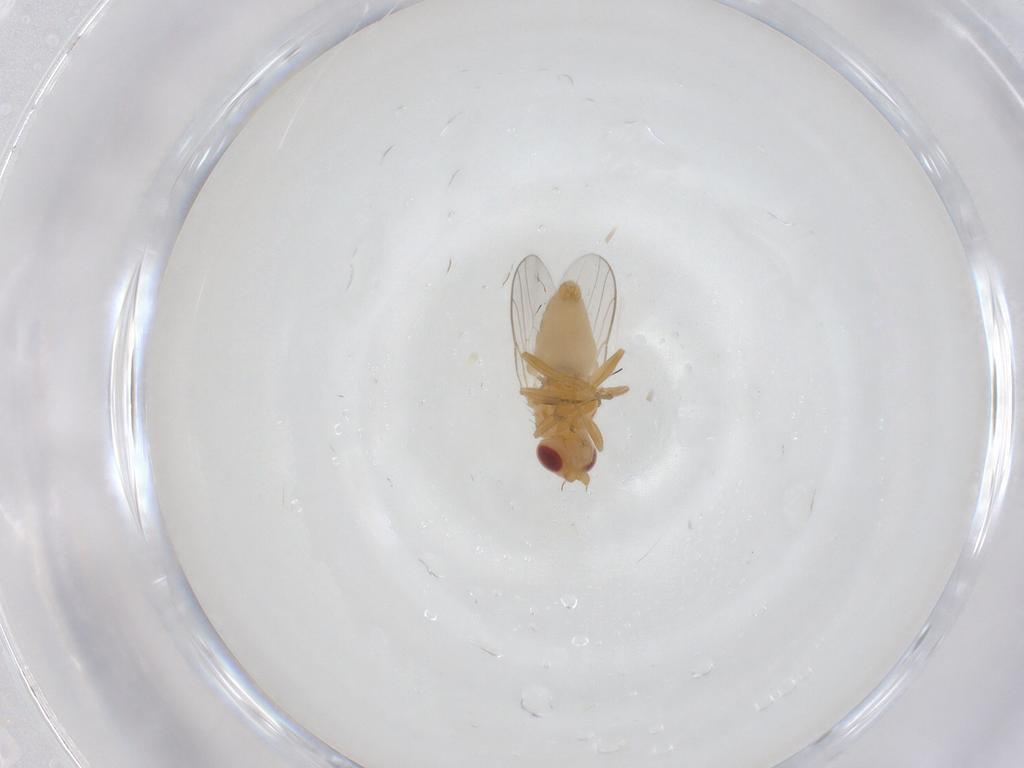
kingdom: Animalia
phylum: Arthropoda
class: Insecta
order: Diptera
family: Chloropidae
